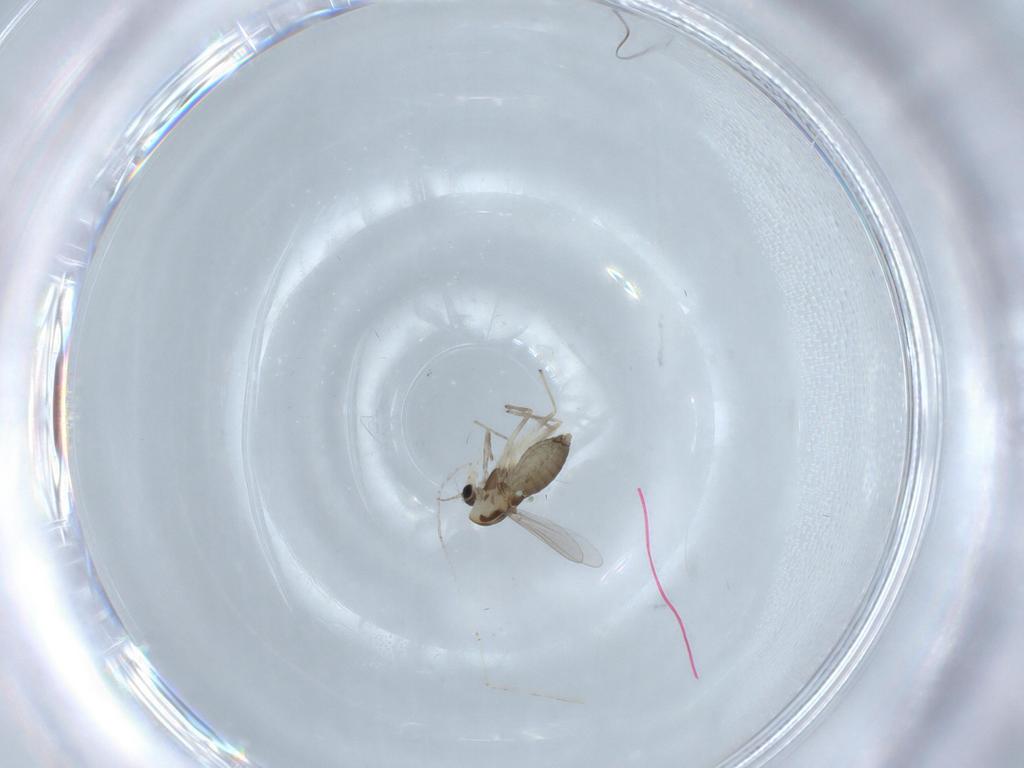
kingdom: Animalia
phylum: Arthropoda
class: Insecta
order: Diptera
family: Chironomidae
